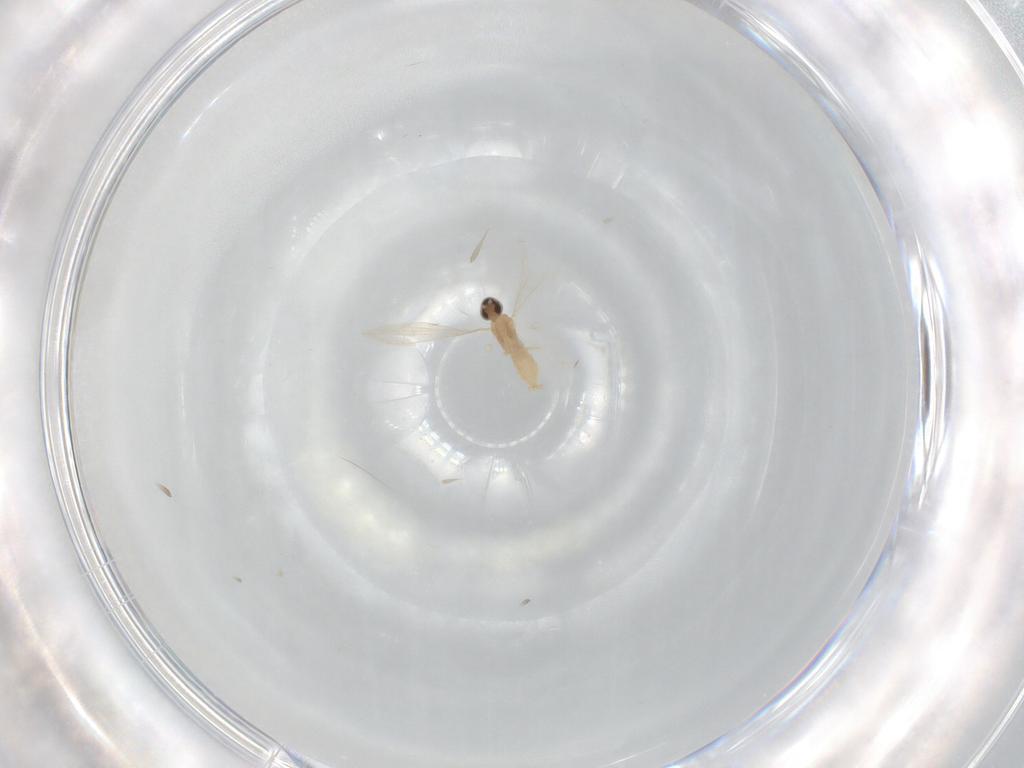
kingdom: Animalia
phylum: Arthropoda
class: Insecta
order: Diptera
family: Cecidomyiidae
